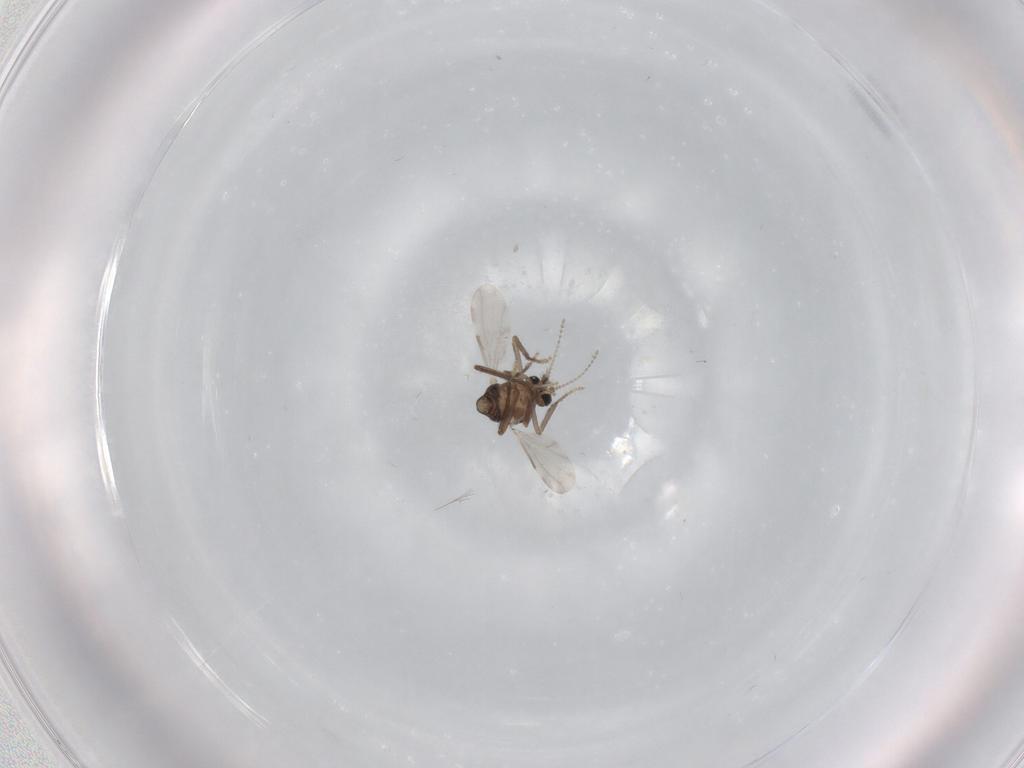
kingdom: Animalia
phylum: Arthropoda
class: Insecta
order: Diptera
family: Ceratopogonidae
